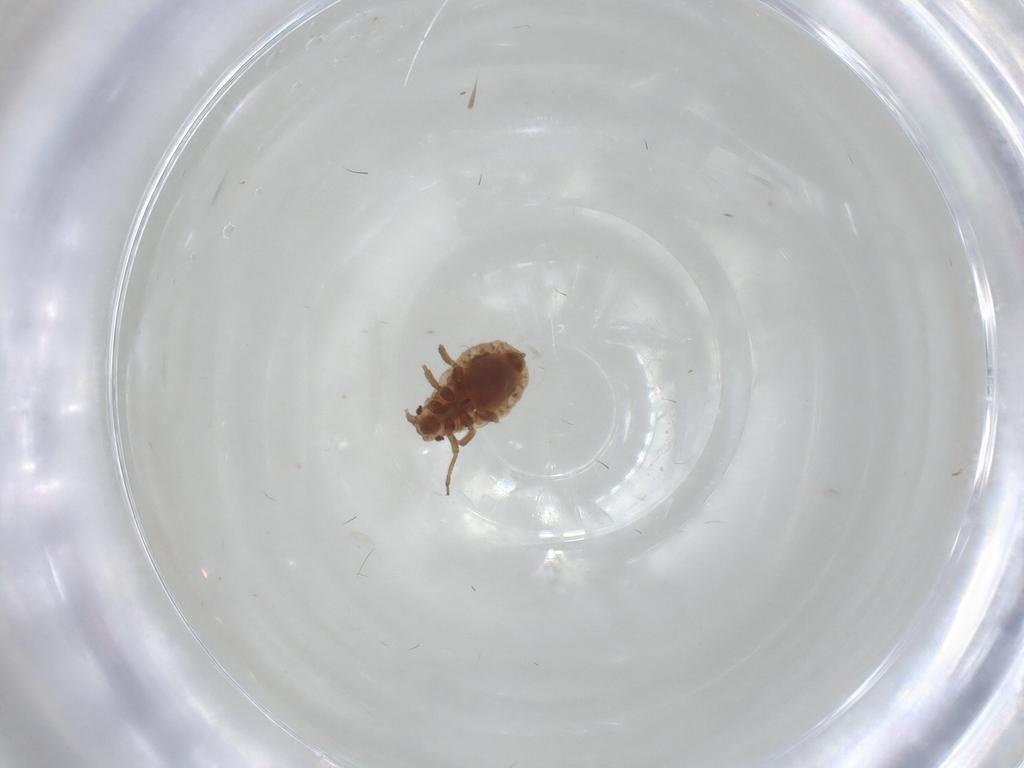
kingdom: Animalia
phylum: Arthropoda
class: Insecta
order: Hemiptera
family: Aphididae
